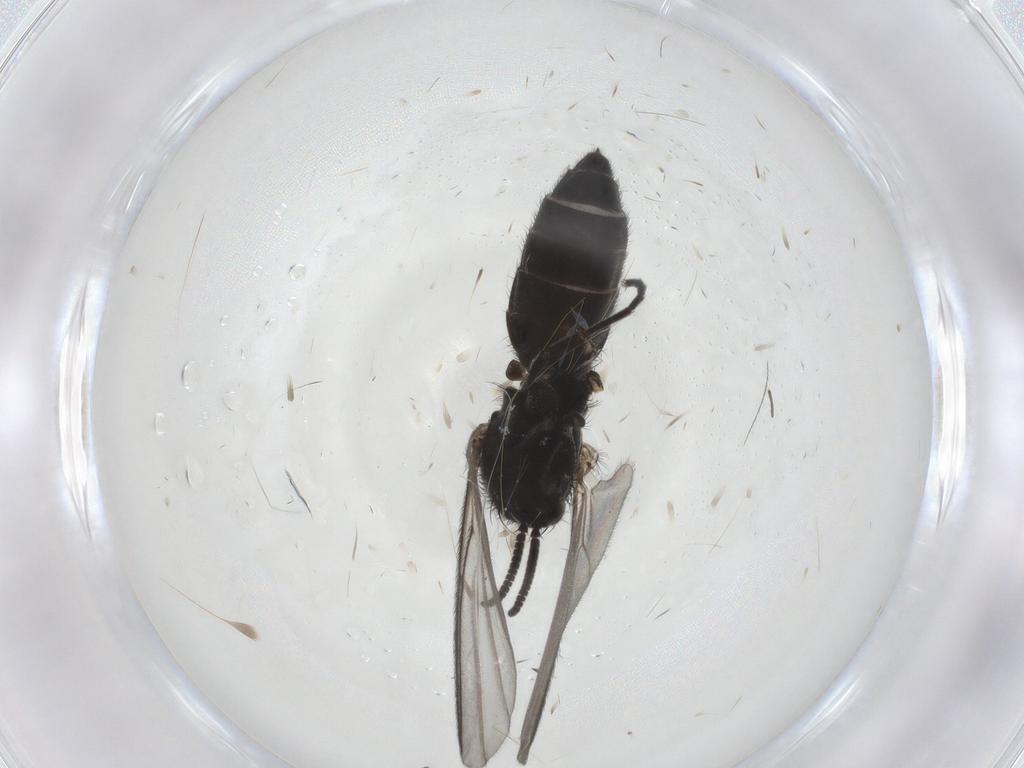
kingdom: Animalia
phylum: Arthropoda
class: Insecta
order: Diptera
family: Mycetophilidae
